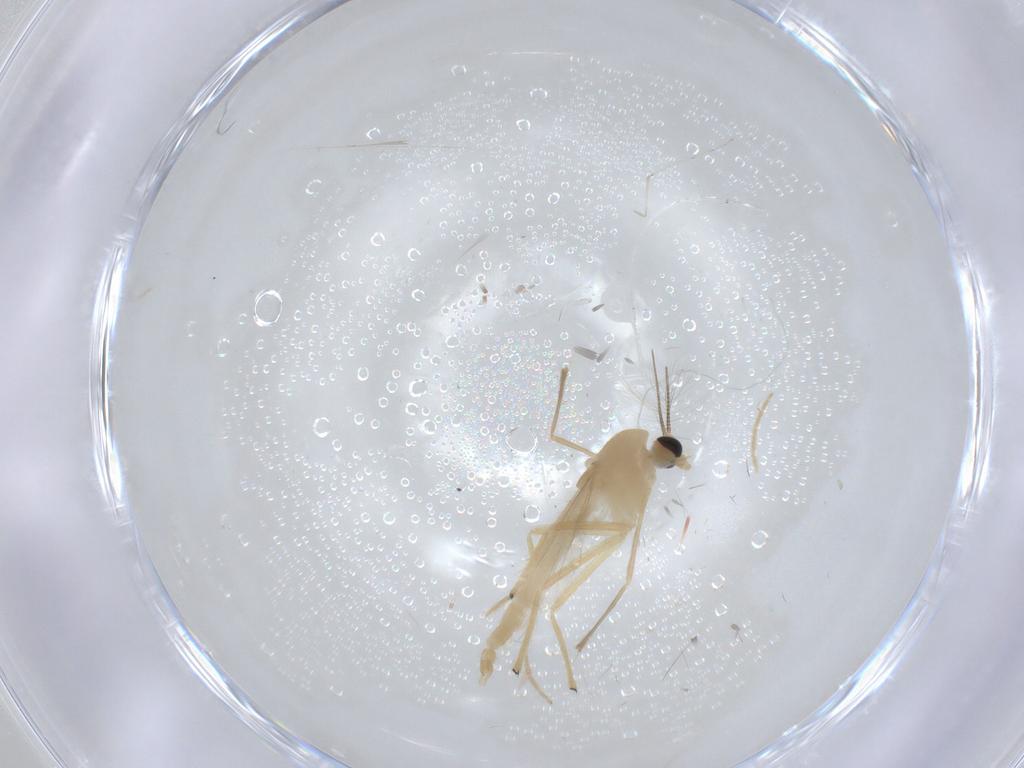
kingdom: Animalia
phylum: Arthropoda
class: Insecta
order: Diptera
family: Chironomidae
